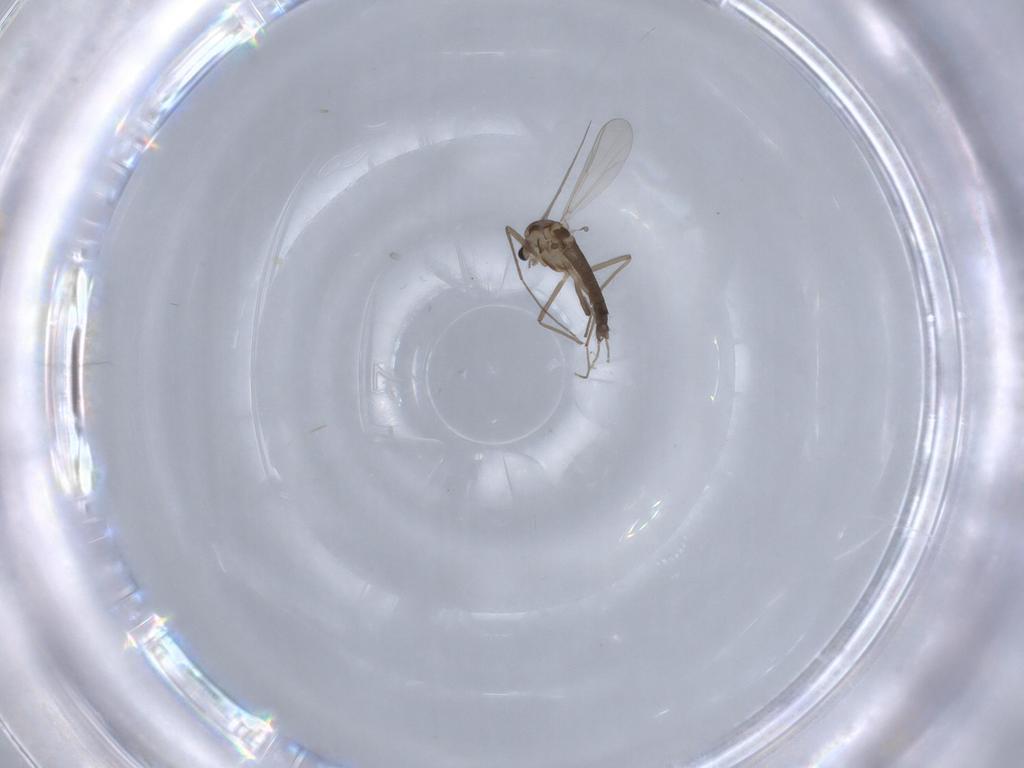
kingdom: Animalia
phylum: Arthropoda
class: Insecta
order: Diptera
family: Chironomidae
